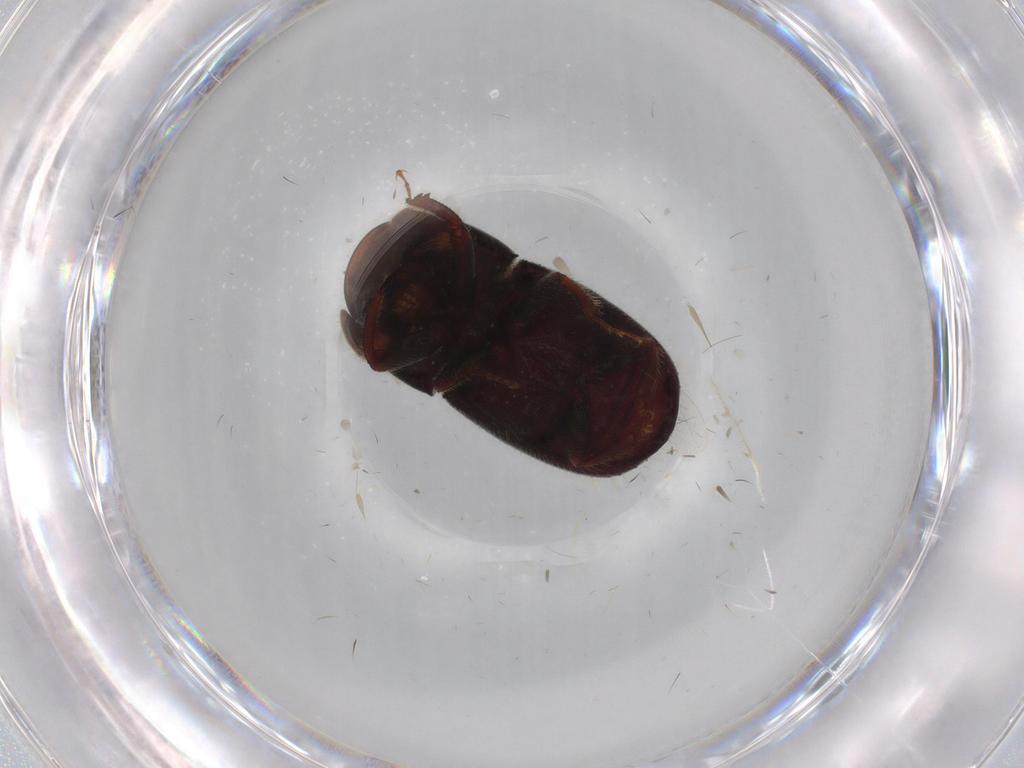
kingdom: Animalia
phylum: Arthropoda
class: Insecta
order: Coleoptera
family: Curculionidae
